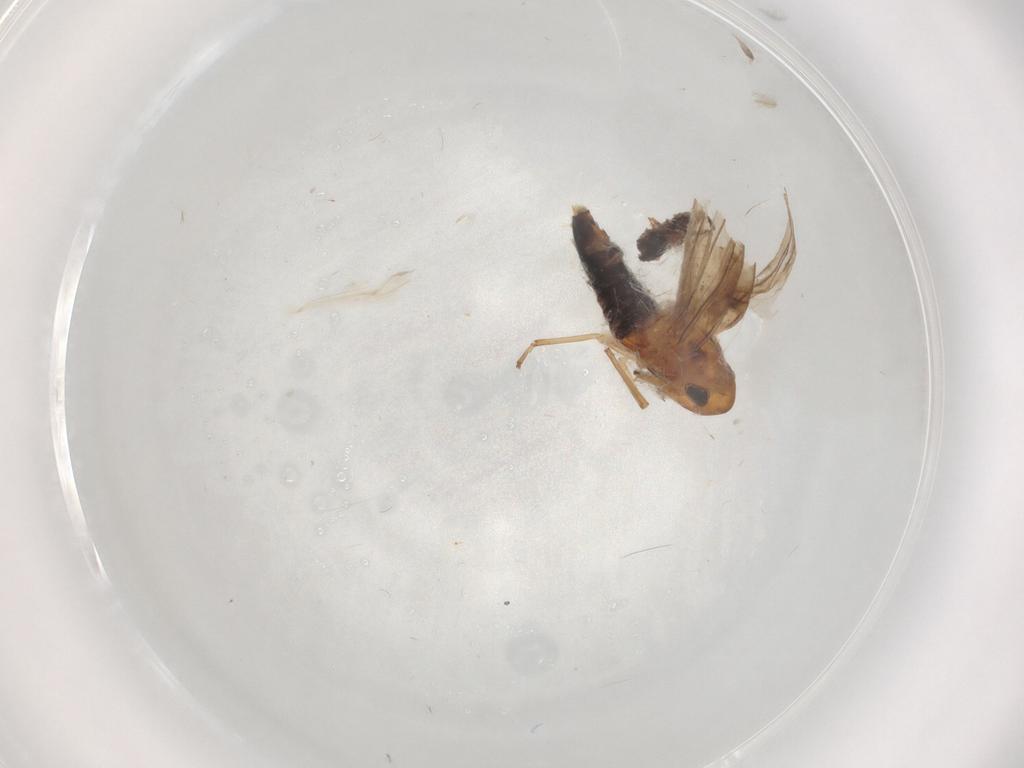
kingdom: Animalia
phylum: Arthropoda
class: Insecta
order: Hemiptera
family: Cicadellidae
